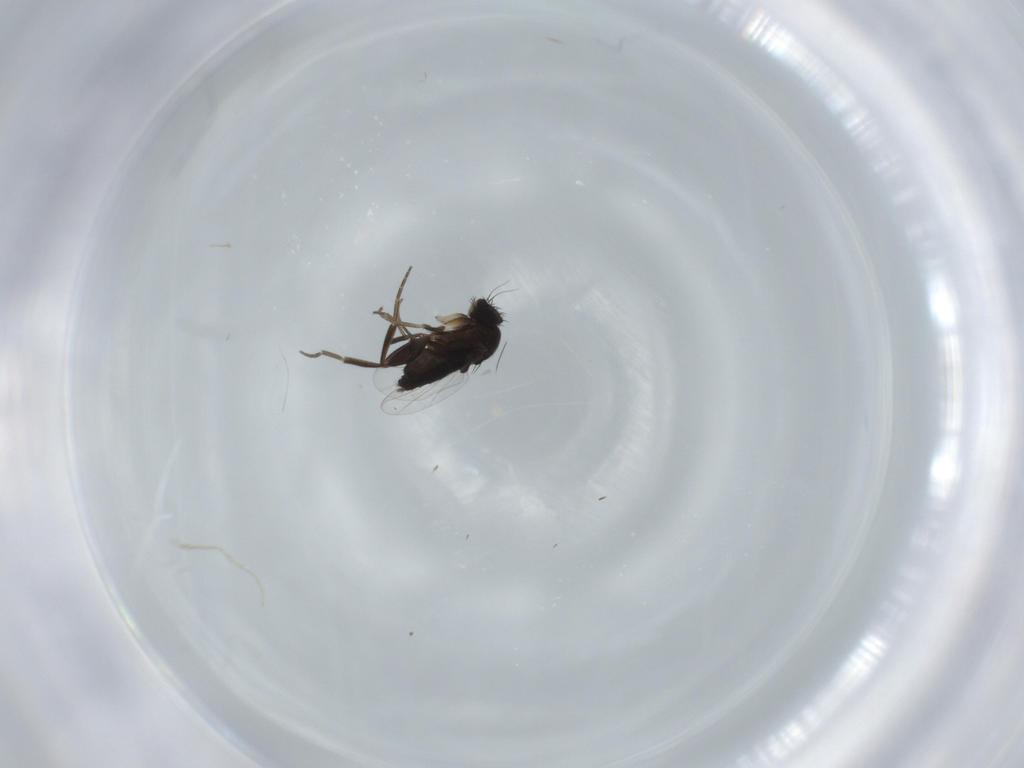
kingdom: Animalia
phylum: Arthropoda
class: Insecta
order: Diptera
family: Phoridae
